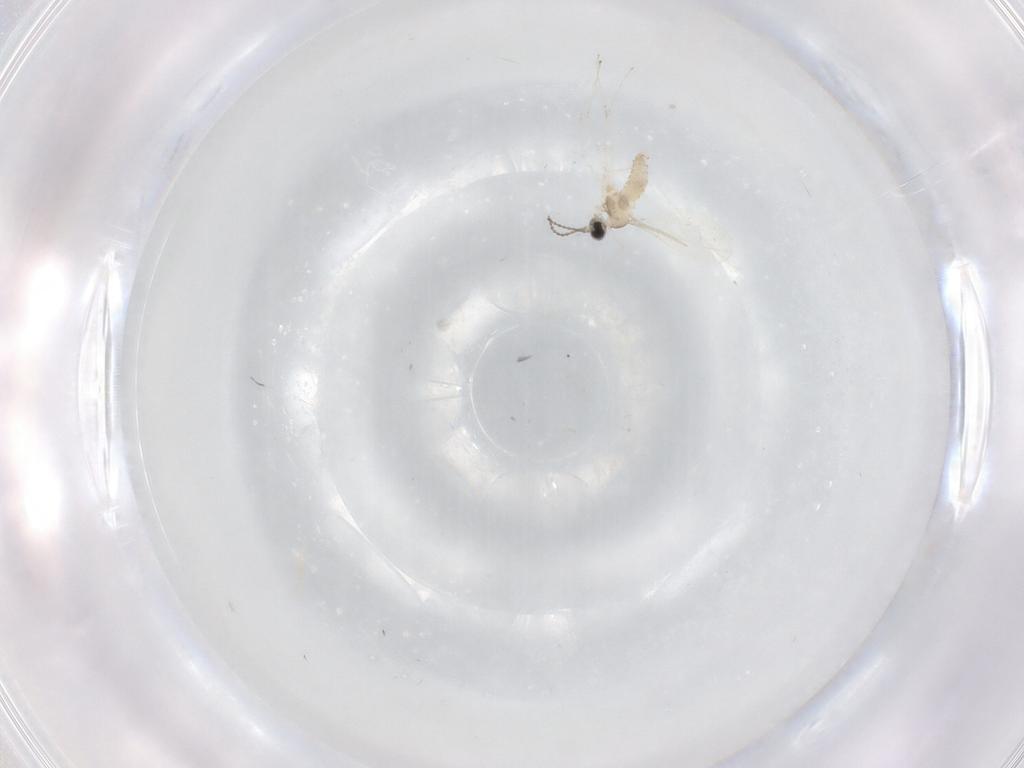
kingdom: Animalia
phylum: Arthropoda
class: Insecta
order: Diptera
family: Cecidomyiidae
